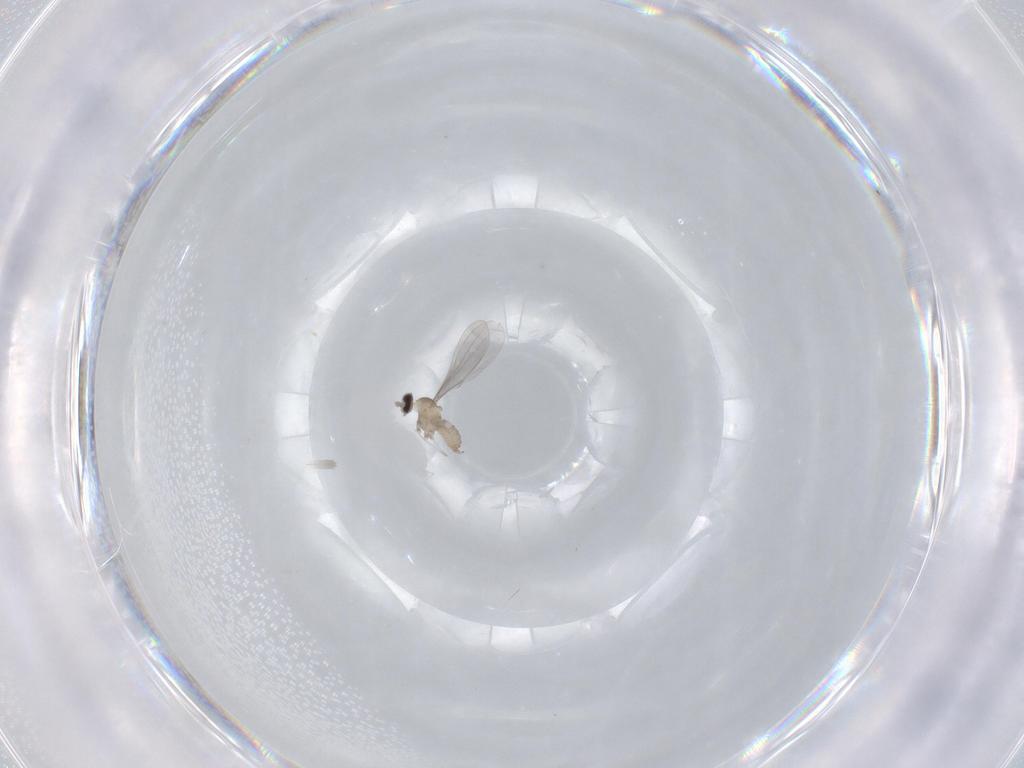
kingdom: Animalia
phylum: Arthropoda
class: Insecta
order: Diptera
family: Cecidomyiidae
